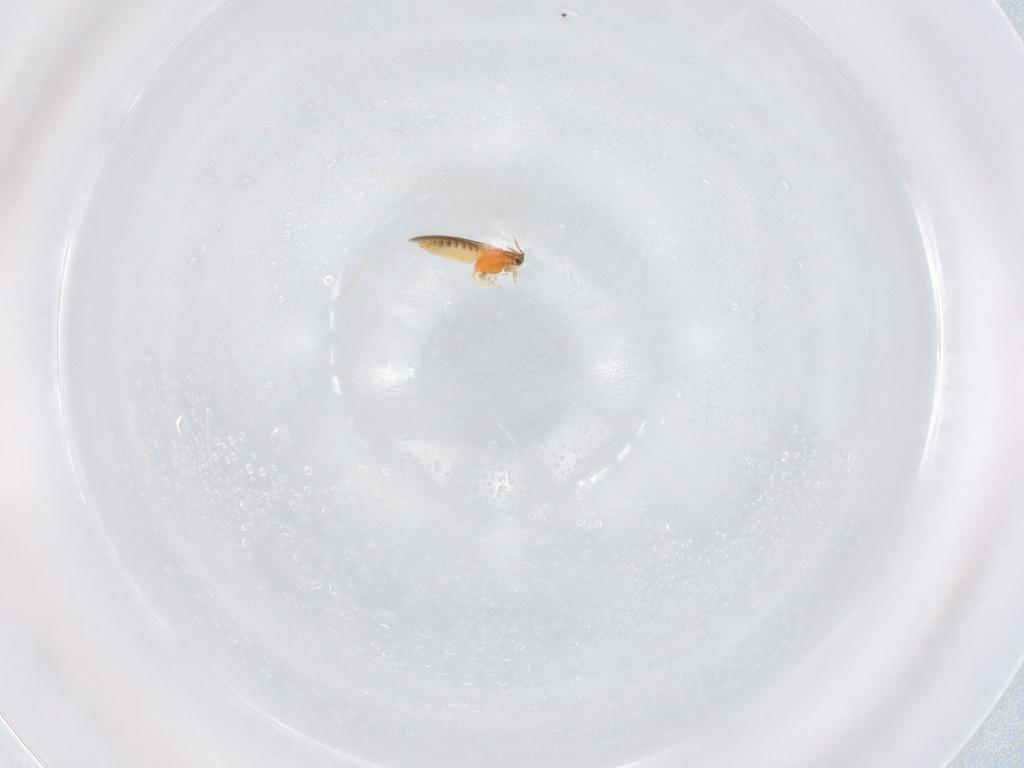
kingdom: Animalia
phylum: Arthropoda
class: Insecta
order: Thysanoptera
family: Thripidae
